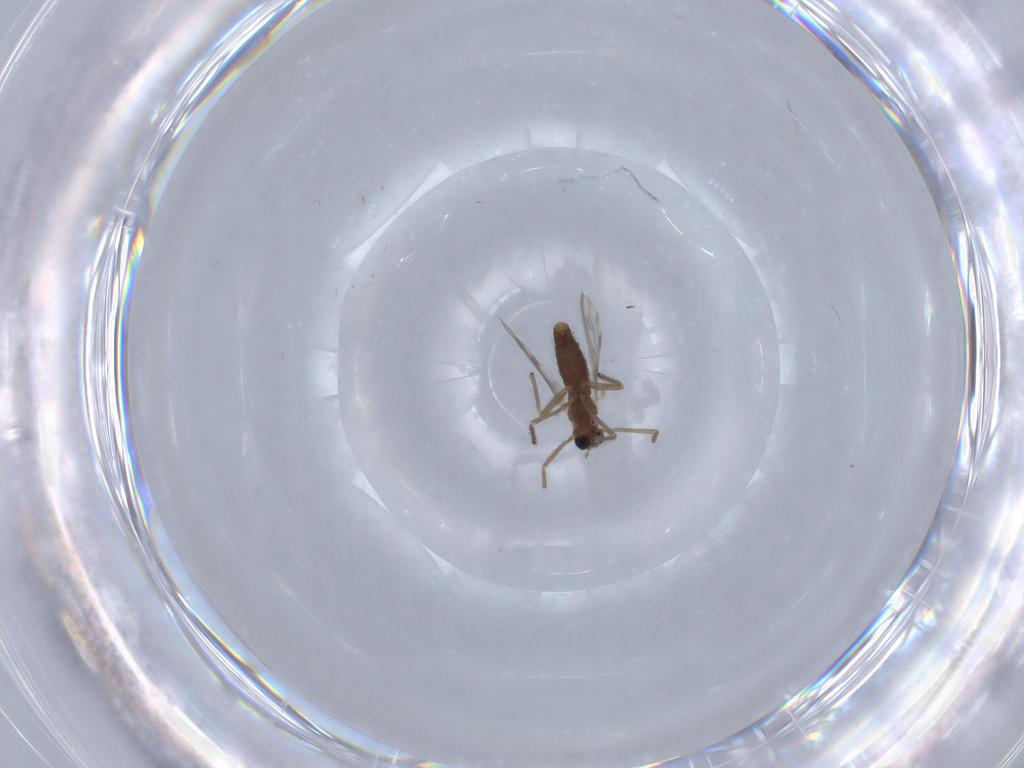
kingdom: Animalia
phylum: Arthropoda
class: Insecta
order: Diptera
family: Chironomidae
